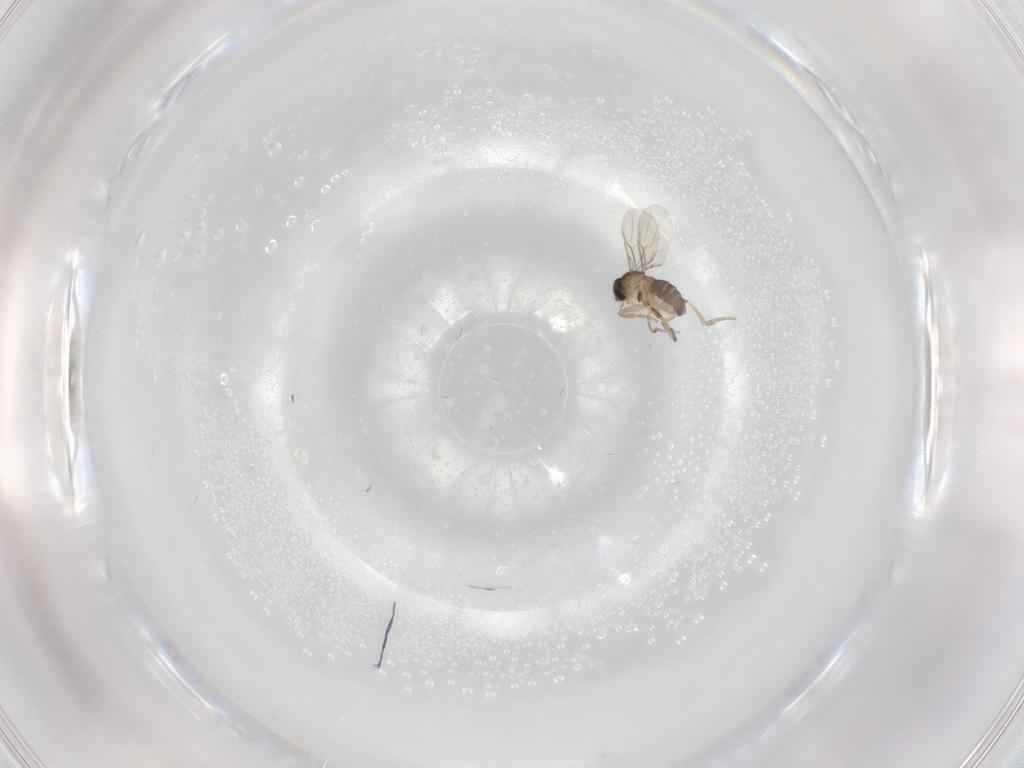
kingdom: Animalia
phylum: Arthropoda
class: Insecta
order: Diptera
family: Phoridae
